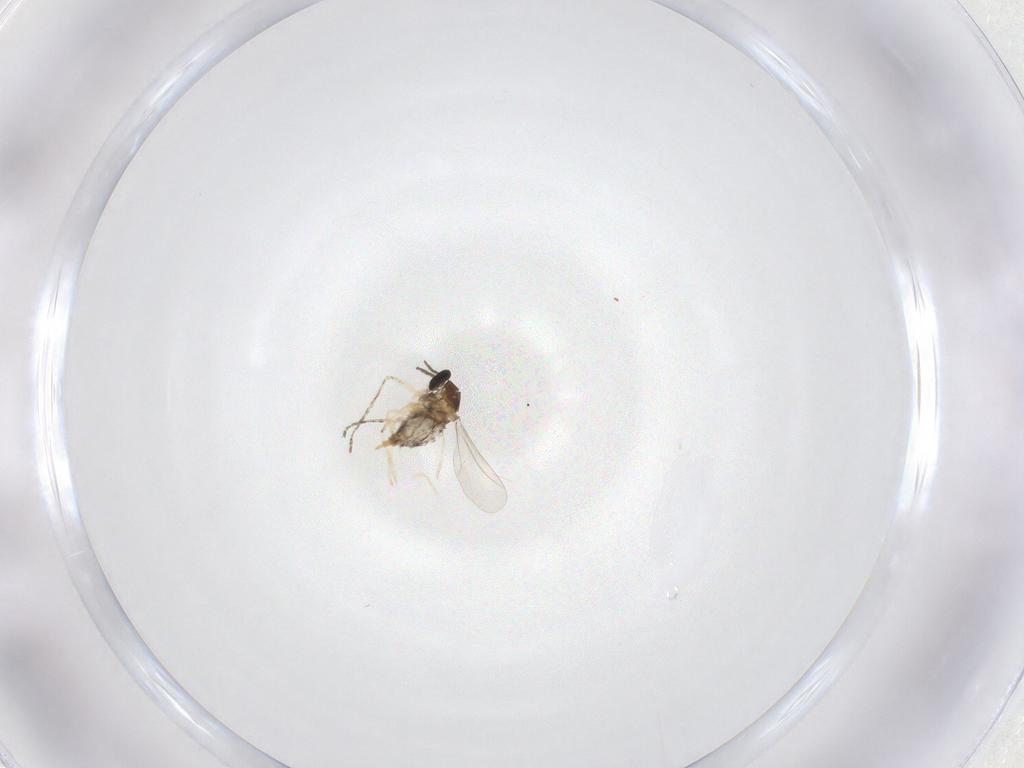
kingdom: Animalia
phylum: Arthropoda
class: Insecta
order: Diptera
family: Cecidomyiidae
